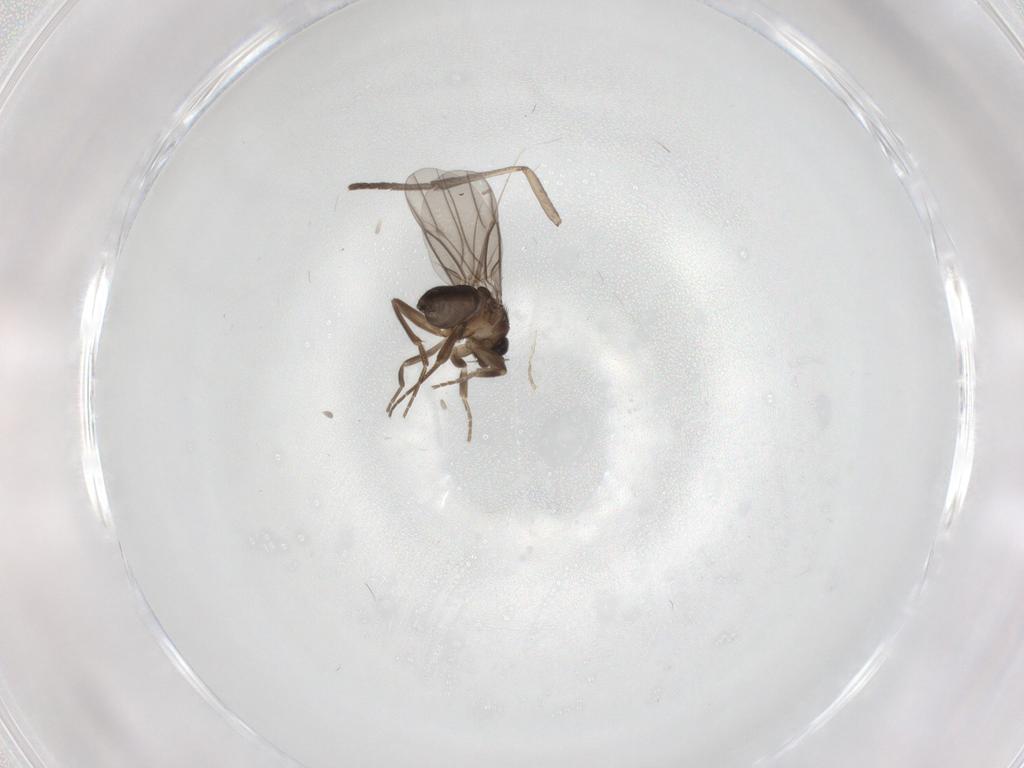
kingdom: Animalia
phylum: Arthropoda
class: Insecta
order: Diptera
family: Phoridae
